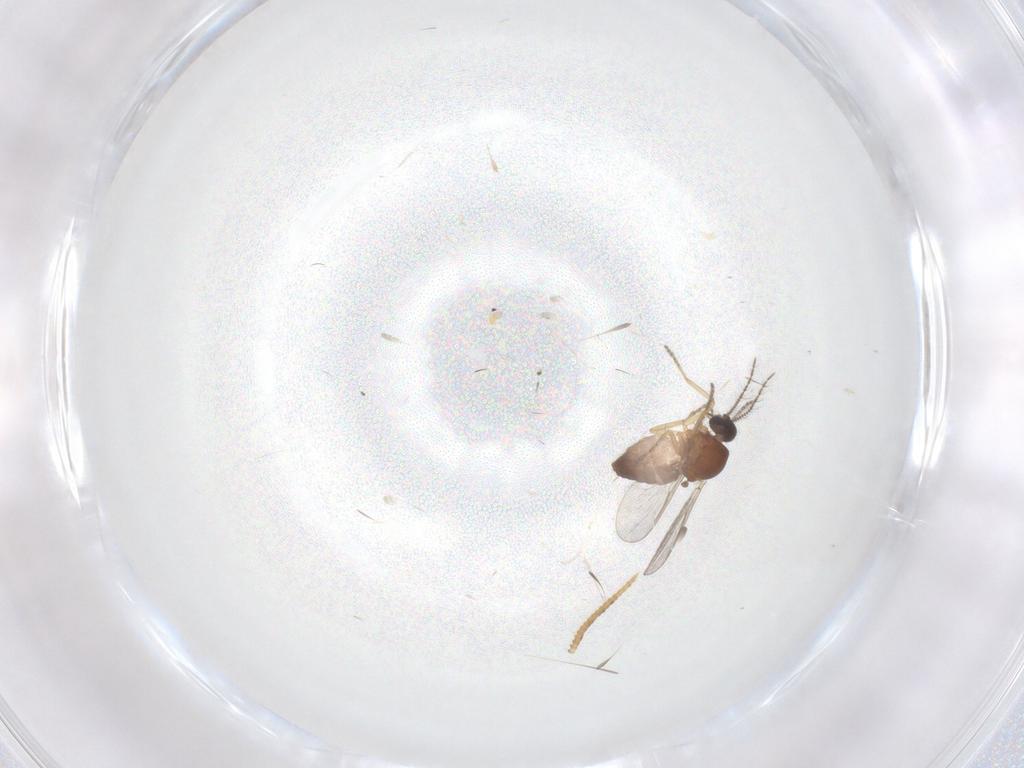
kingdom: Animalia
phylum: Arthropoda
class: Insecta
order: Diptera
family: Ceratopogonidae
